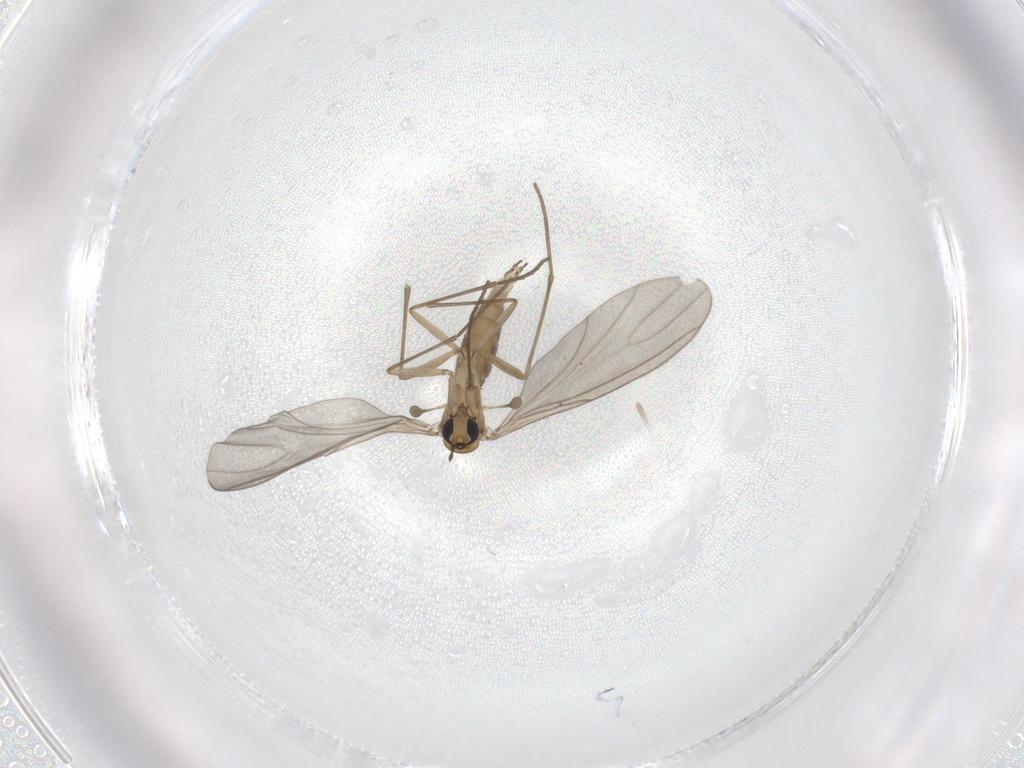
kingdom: Animalia
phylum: Arthropoda
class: Insecta
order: Diptera
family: Sciaridae
